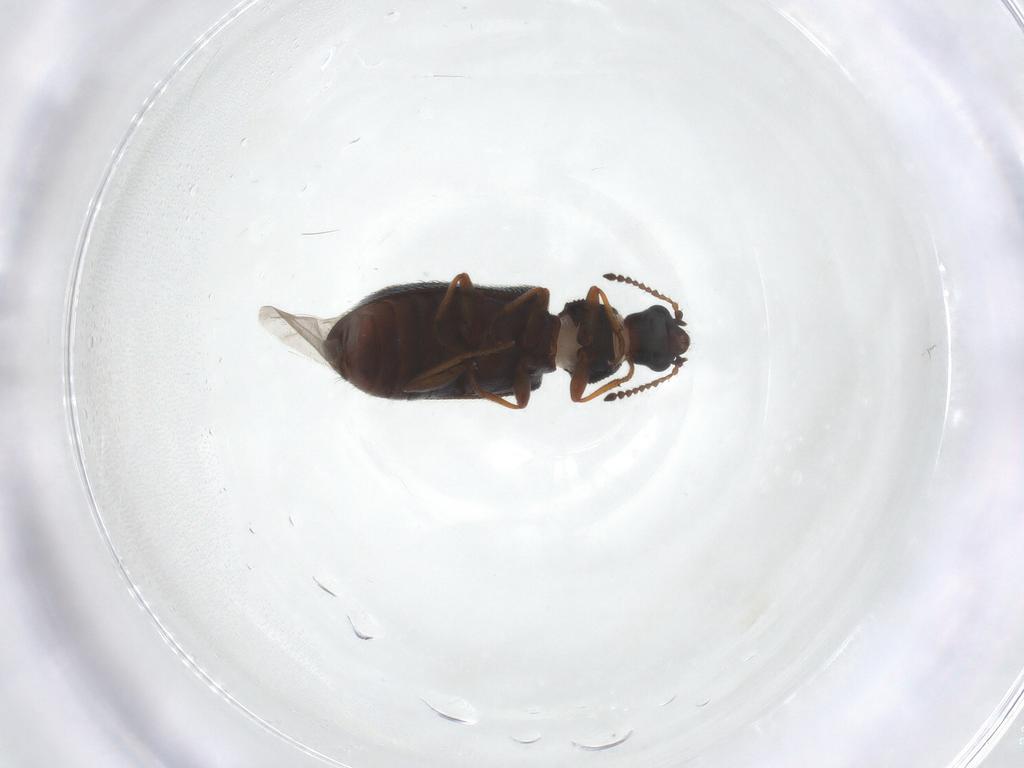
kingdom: Animalia
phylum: Arthropoda
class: Insecta
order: Coleoptera
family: Melyridae
